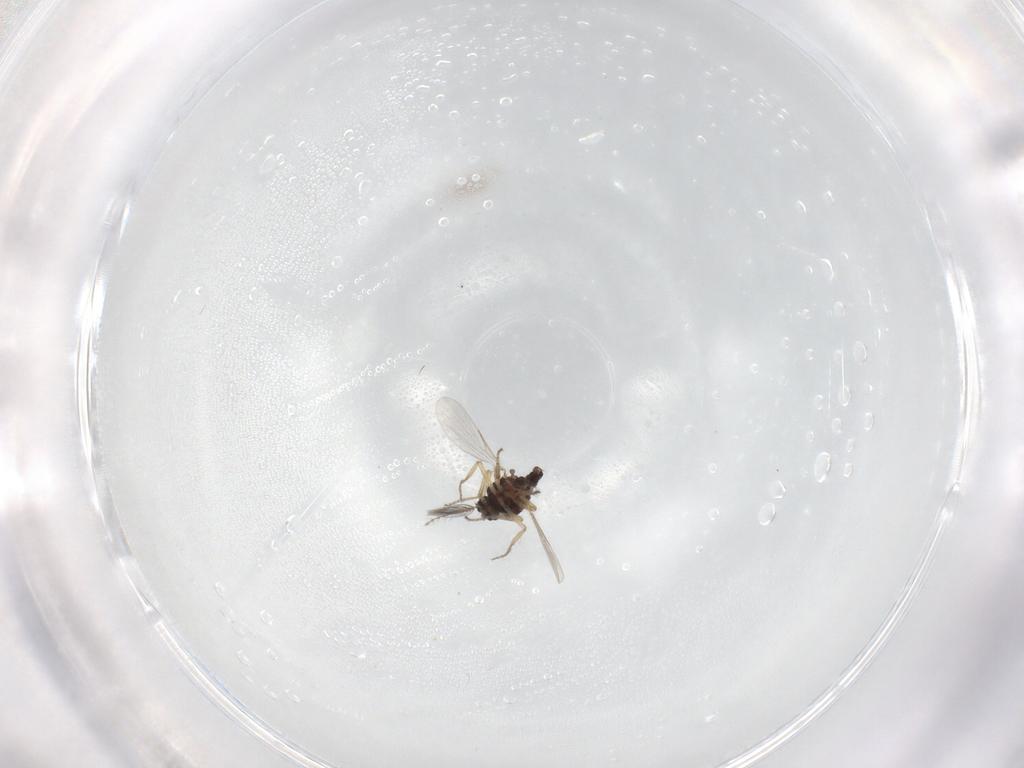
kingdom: Animalia
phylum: Arthropoda
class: Insecta
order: Diptera
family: Ceratopogonidae
